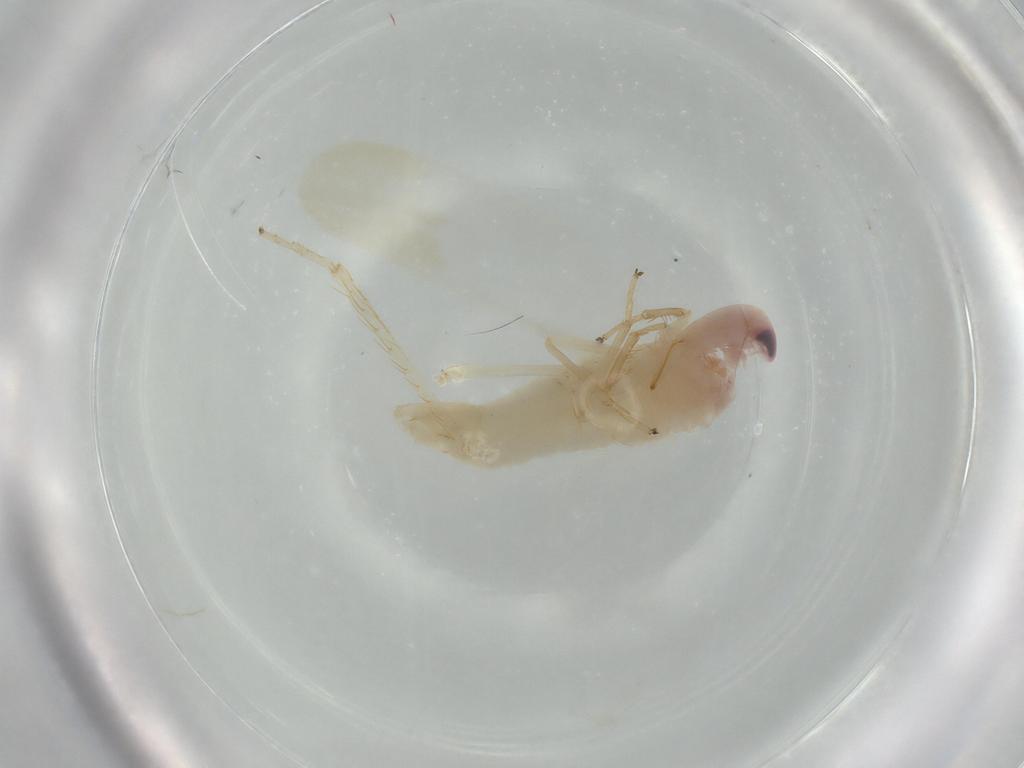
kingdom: Animalia
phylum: Arthropoda
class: Insecta
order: Hemiptera
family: Cicadellidae
